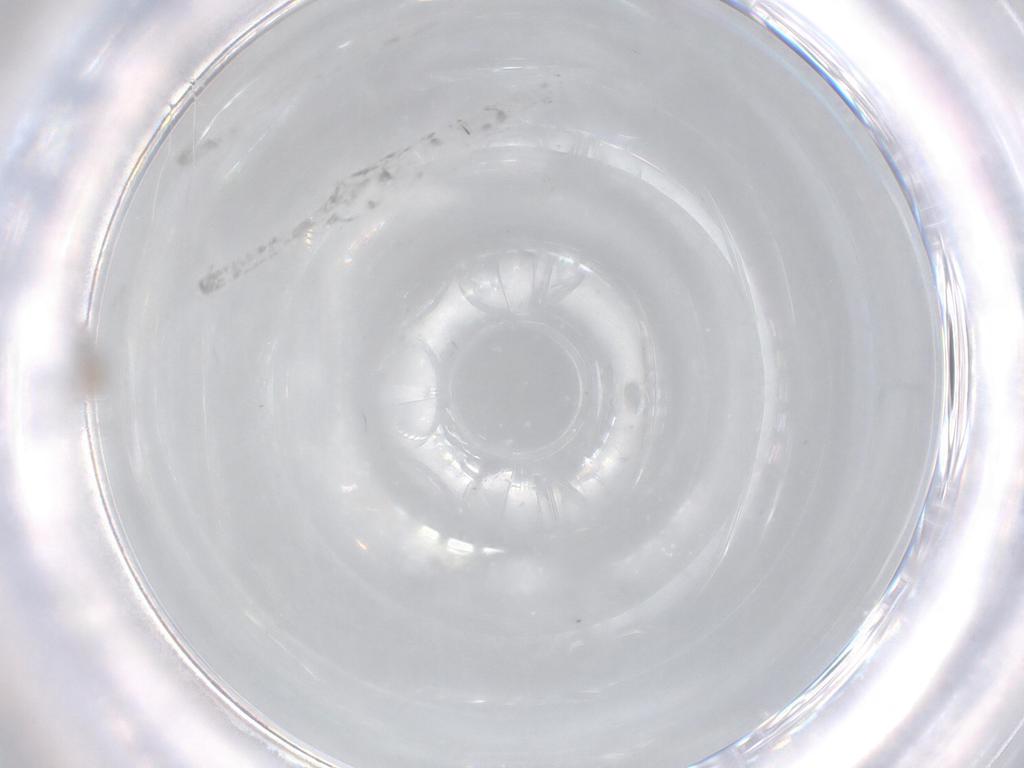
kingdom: Animalia
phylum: Arthropoda
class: Insecta
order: Diptera
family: Cecidomyiidae
